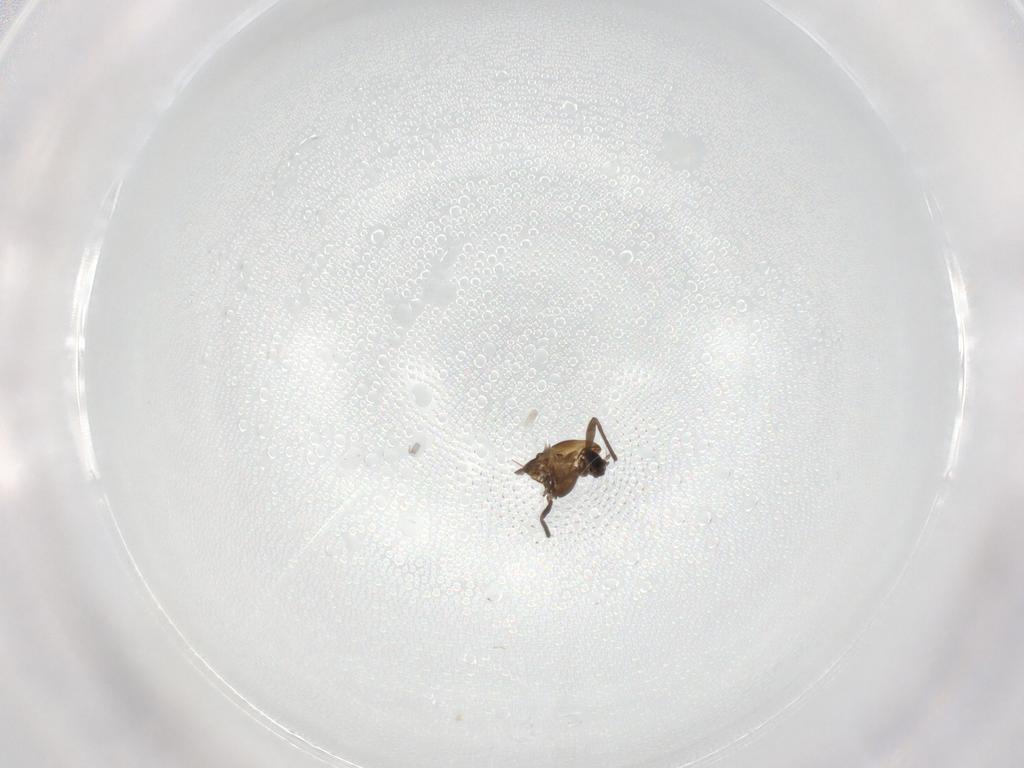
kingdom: Animalia
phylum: Arthropoda
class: Insecta
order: Diptera
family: Chironomidae
